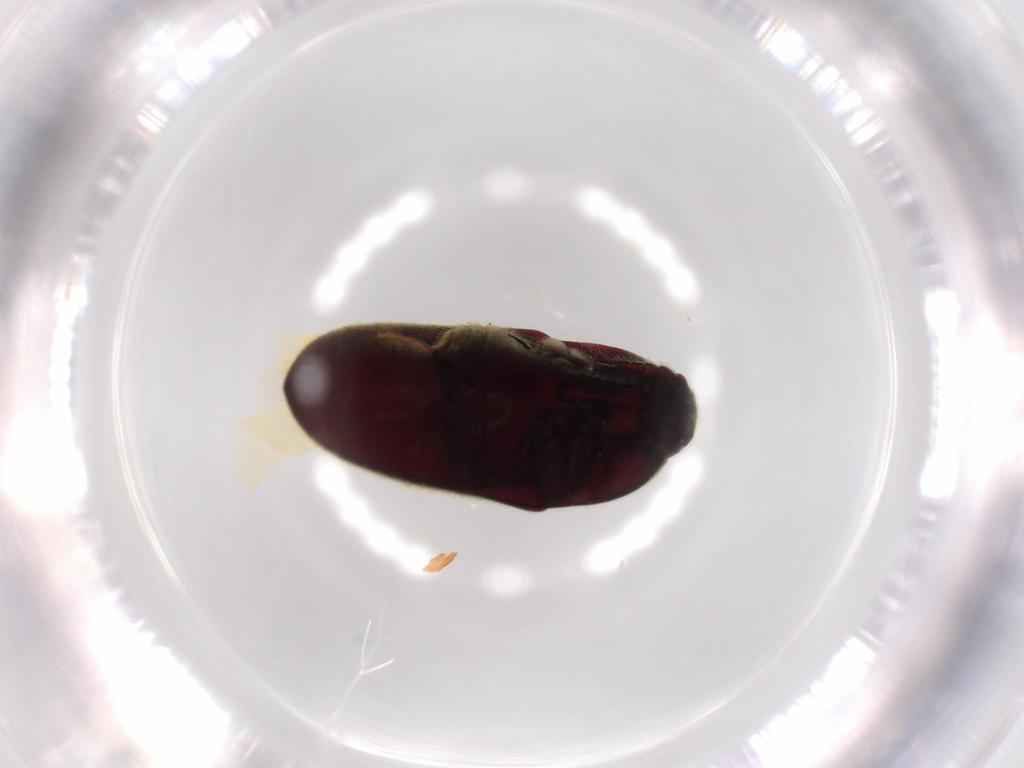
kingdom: Animalia
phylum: Arthropoda
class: Insecta
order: Coleoptera
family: Throscidae
